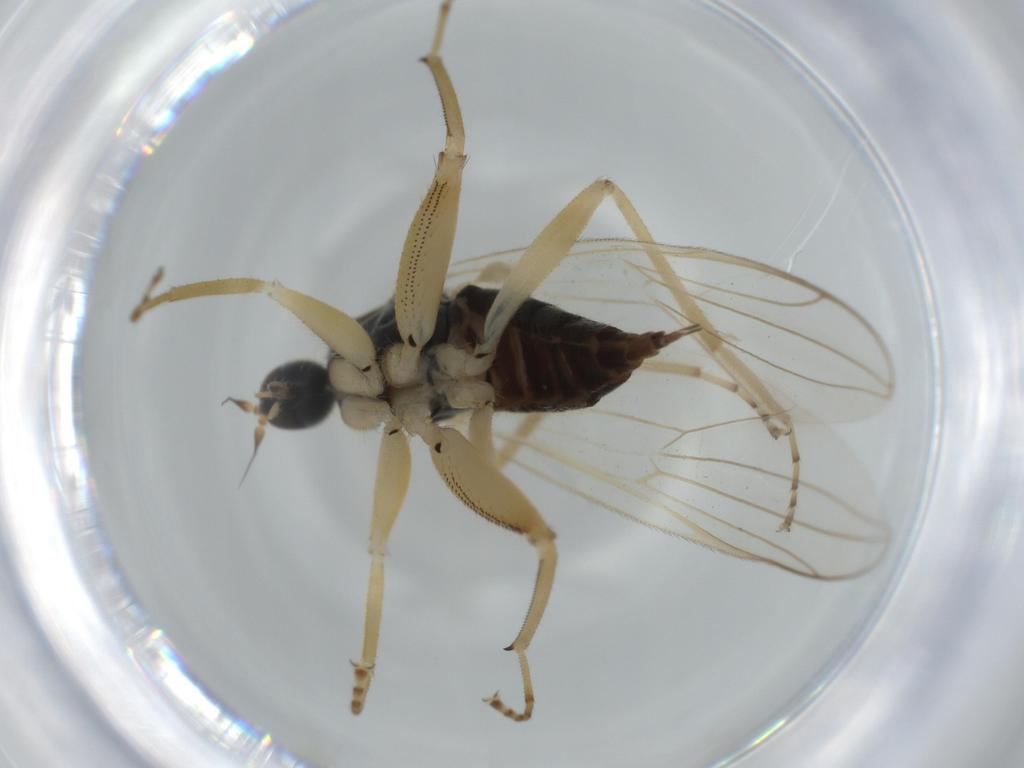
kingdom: Animalia
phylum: Arthropoda
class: Insecta
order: Diptera
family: Hybotidae
